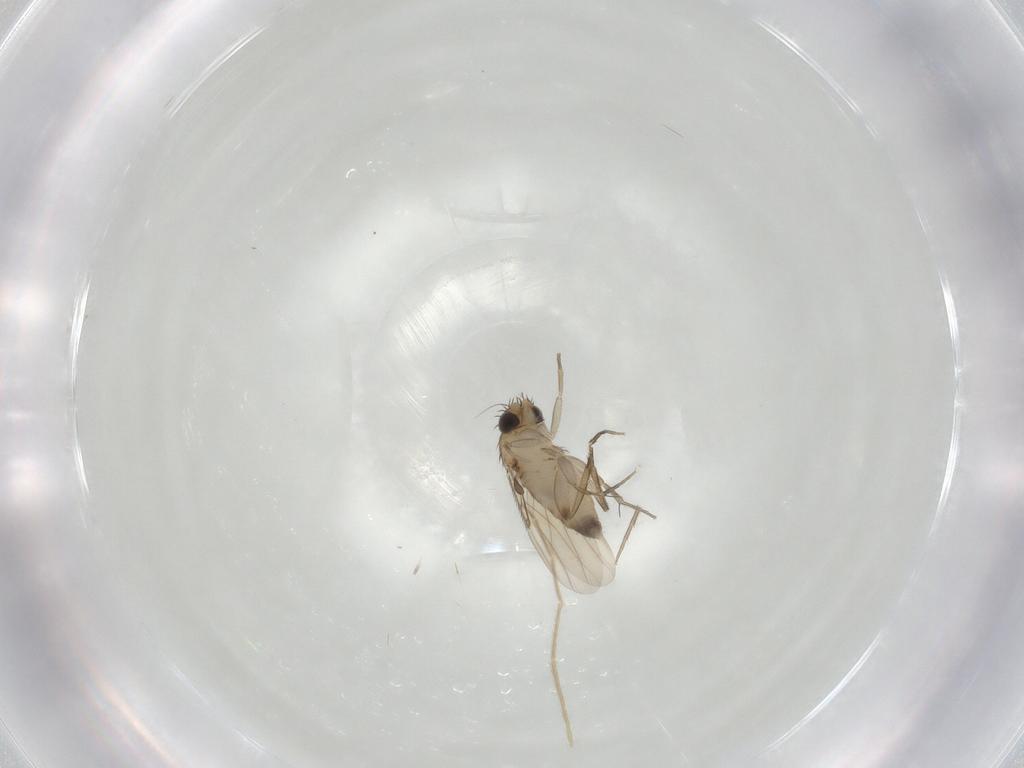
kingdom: Animalia
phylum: Arthropoda
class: Insecta
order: Diptera
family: Phoridae
